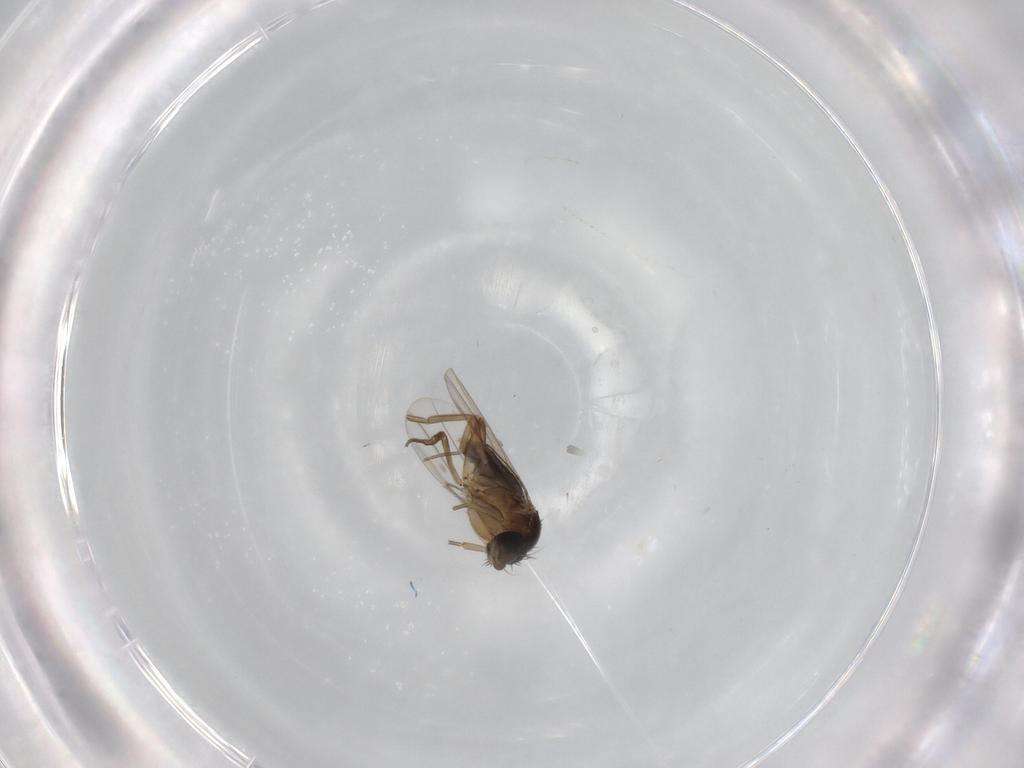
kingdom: Animalia
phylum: Arthropoda
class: Insecta
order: Diptera
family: Phoridae
